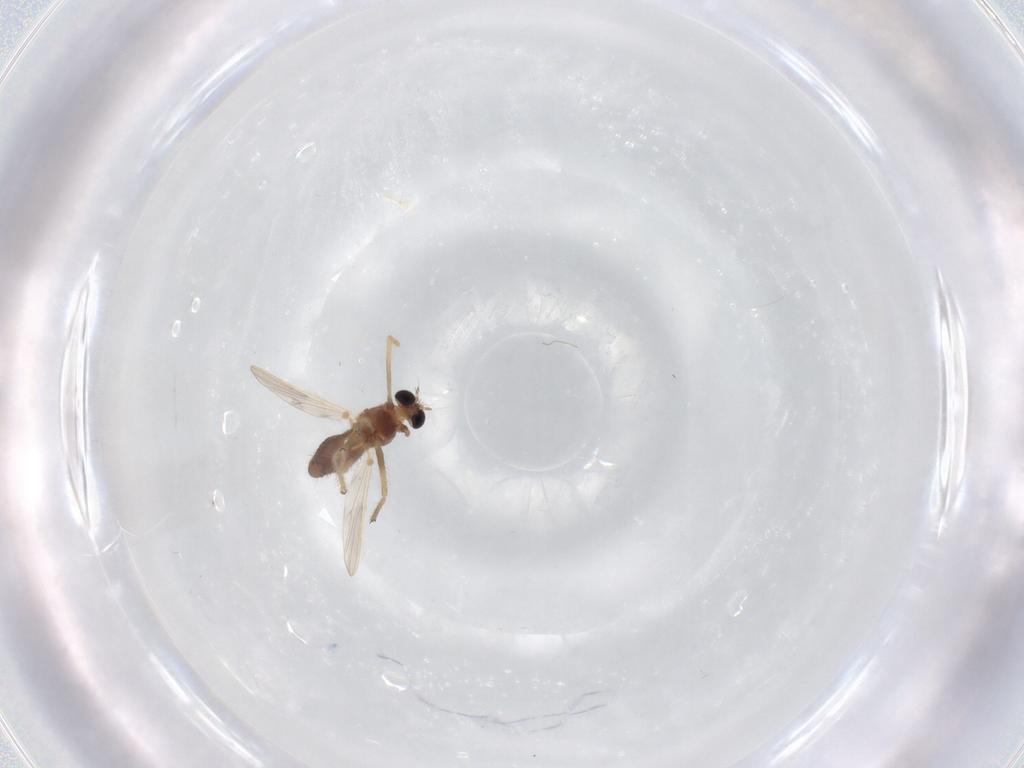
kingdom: Animalia
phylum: Arthropoda
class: Insecta
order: Diptera
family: Chironomidae
